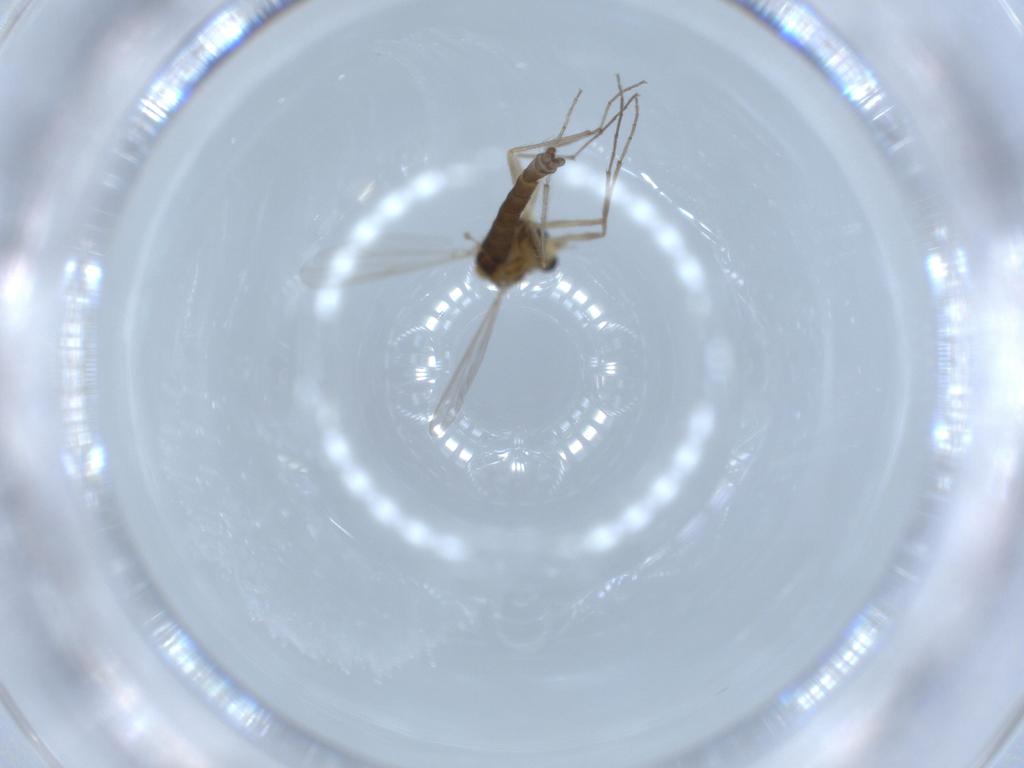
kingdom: Animalia
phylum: Arthropoda
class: Insecta
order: Diptera
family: Chironomidae
